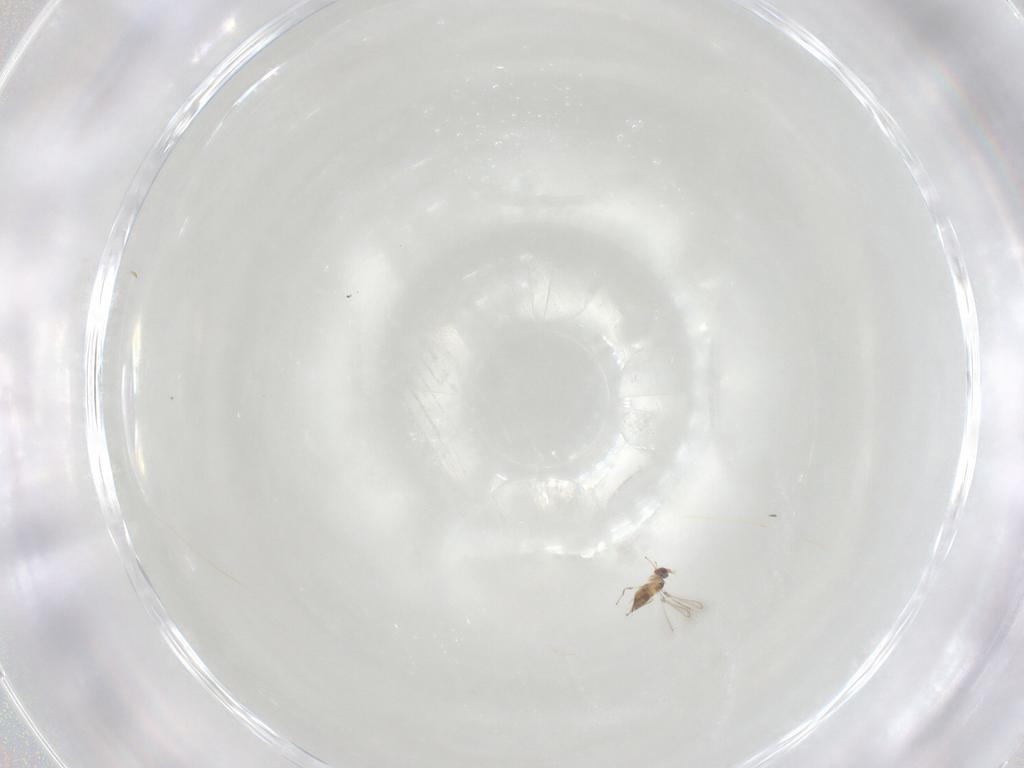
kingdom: Animalia
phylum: Arthropoda
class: Insecta
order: Hymenoptera
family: Mymaridae
